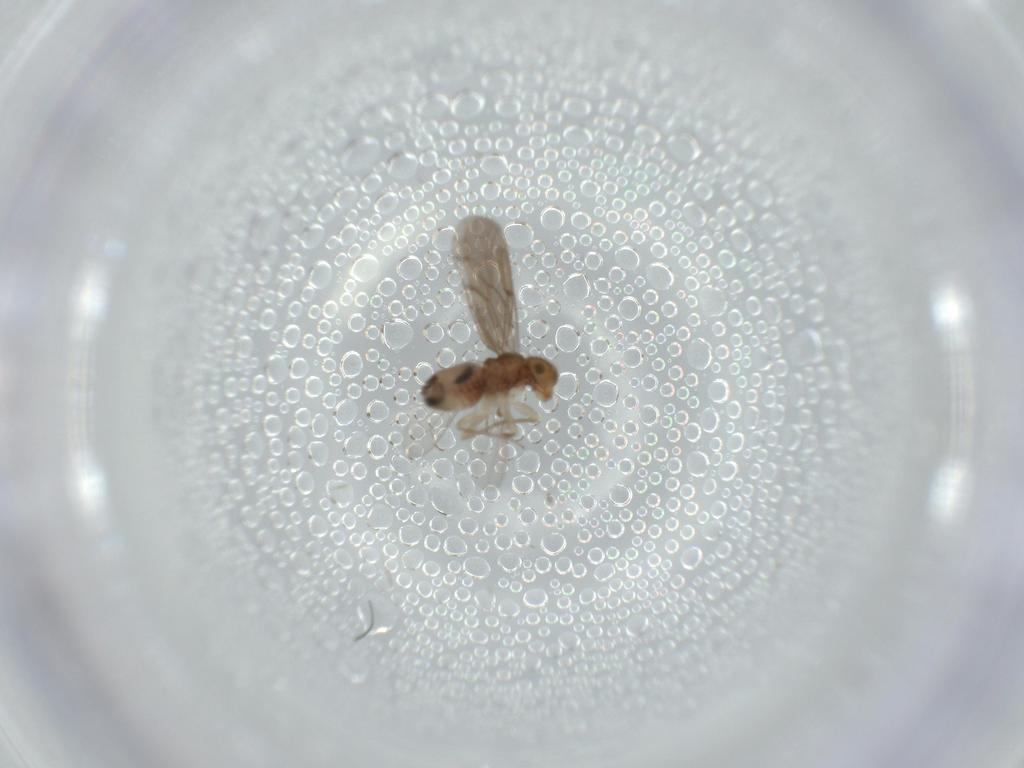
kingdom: Animalia
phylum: Arthropoda
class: Insecta
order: Psocodea
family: Ectopsocidae
